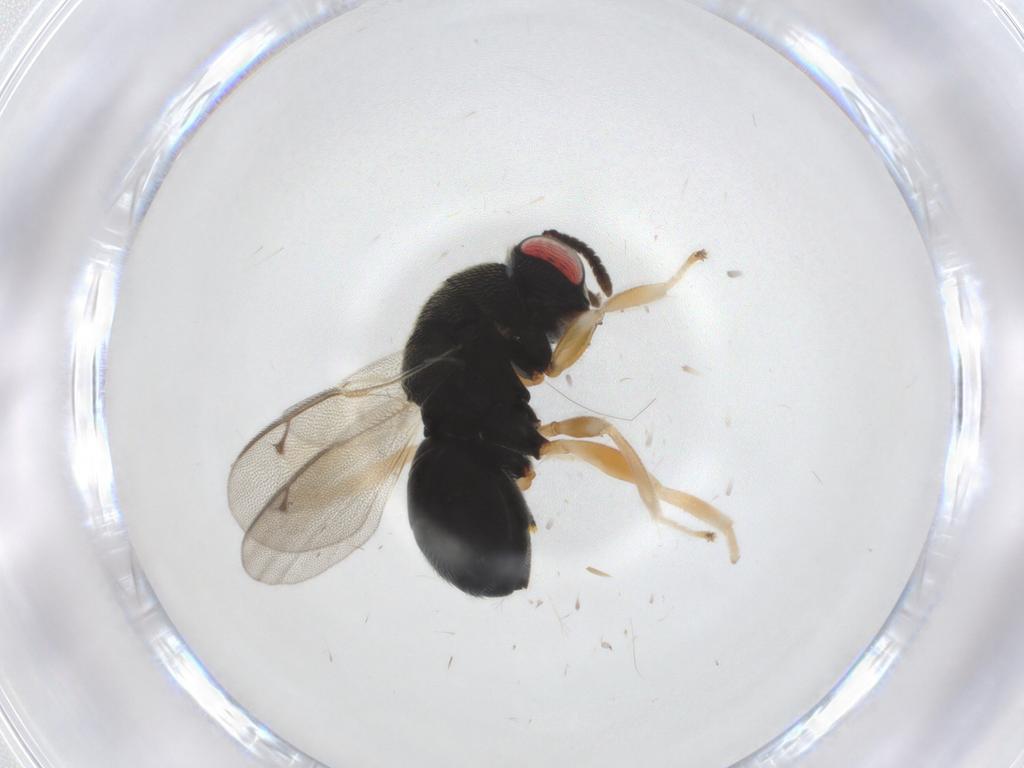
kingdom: Animalia
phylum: Arthropoda
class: Insecta
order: Hymenoptera
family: Eurytomidae
